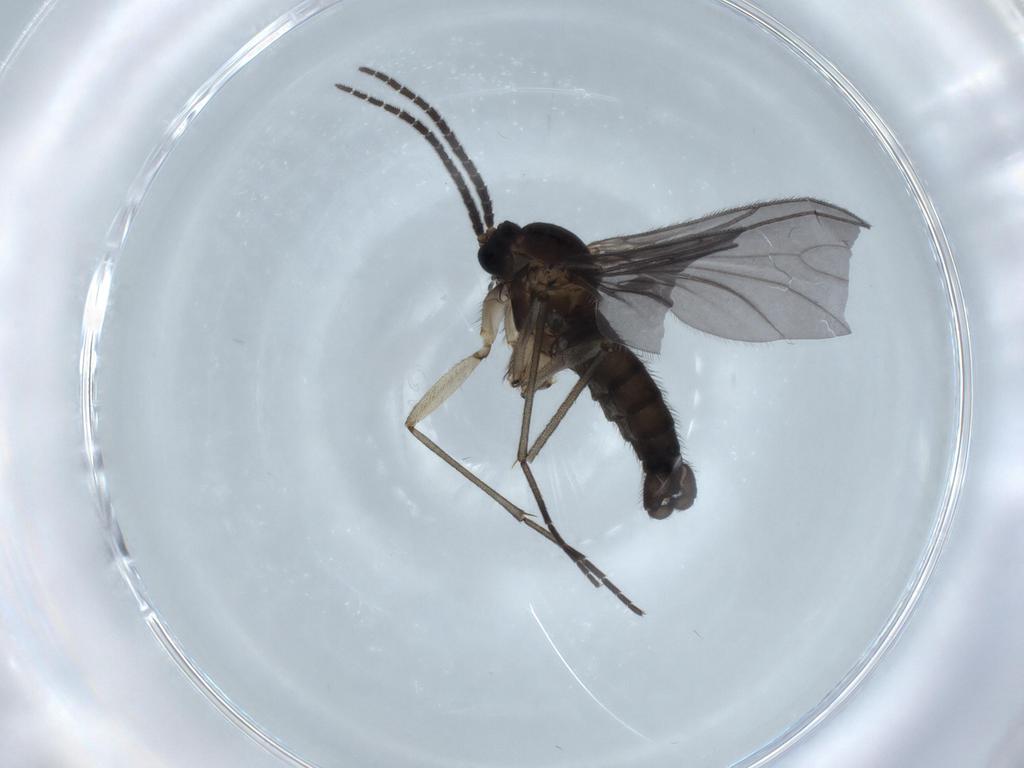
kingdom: Animalia
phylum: Arthropoda
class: Insecta
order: Diptera
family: Sciaridae
